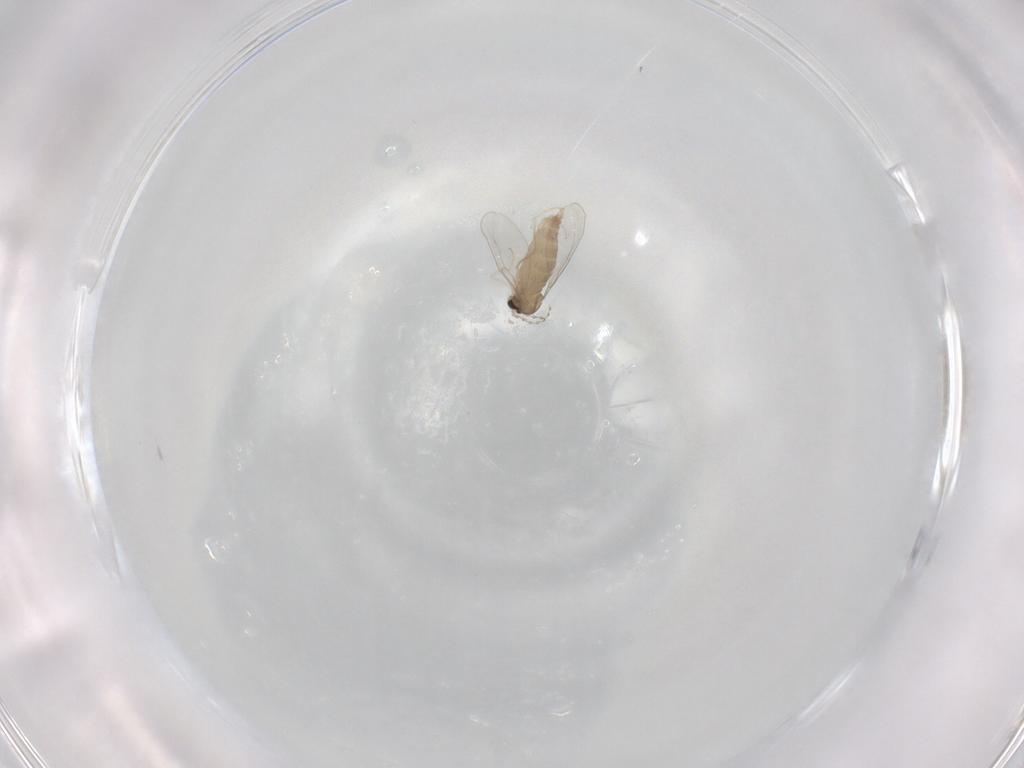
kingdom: Animalia
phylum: Arthropoda
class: Insecta
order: Diptera
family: Cecidomyiidae
